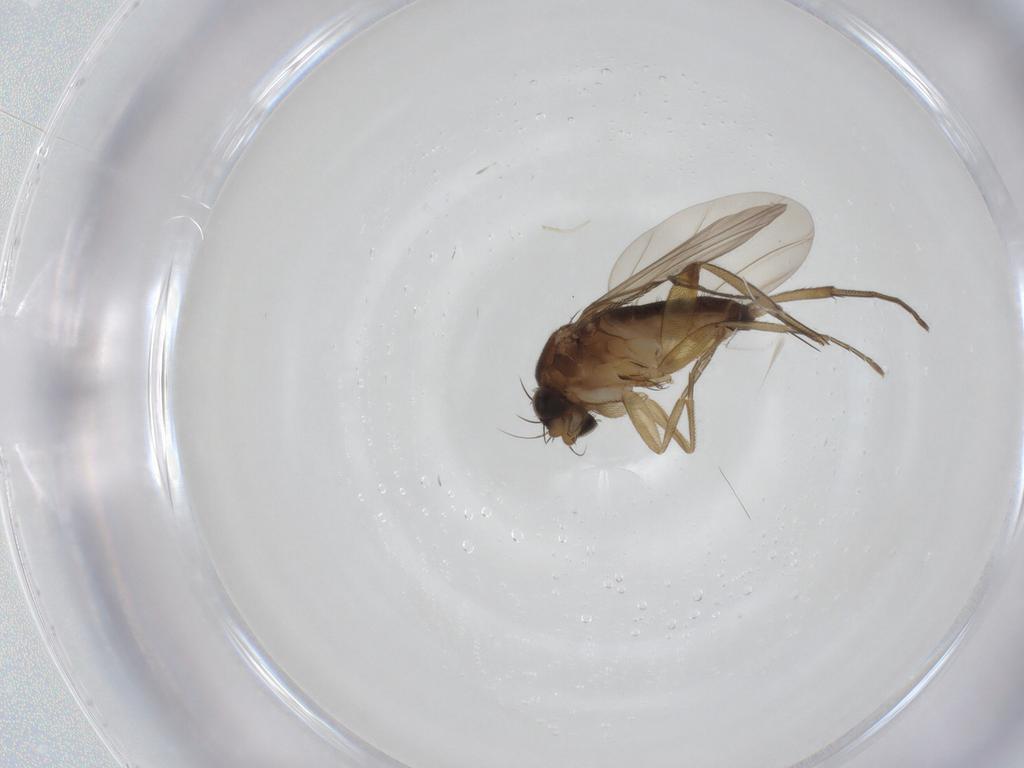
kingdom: Animalia
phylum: Arthropoda
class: Insecta
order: Diptera
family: Phoridae
